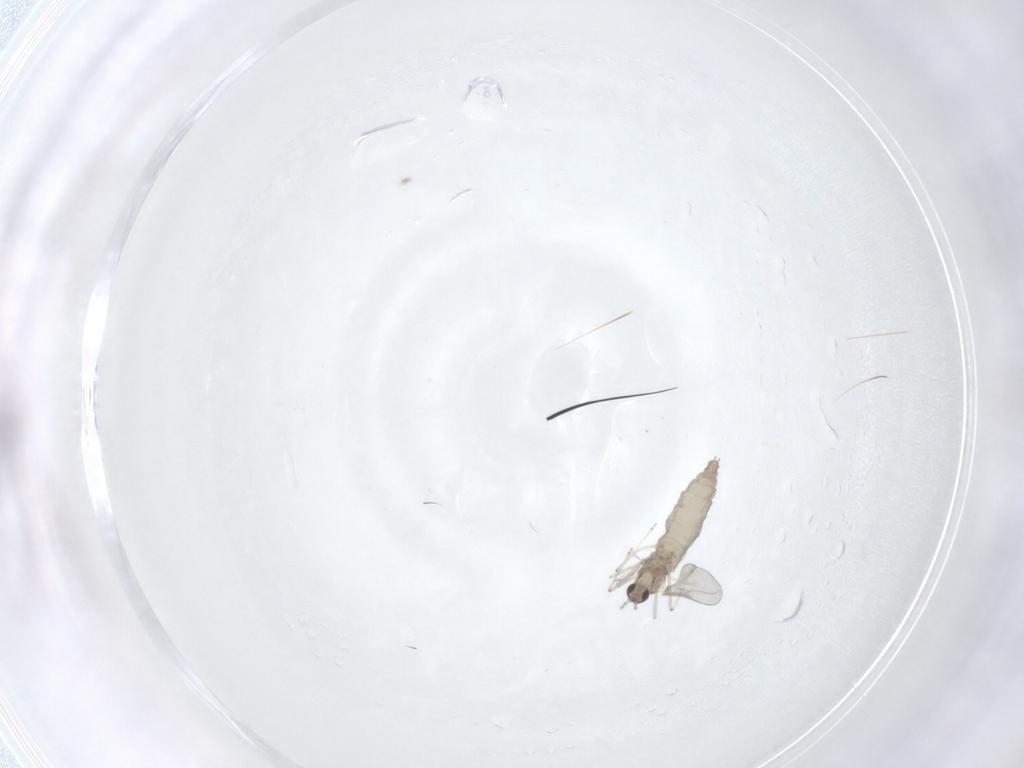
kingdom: Animalia
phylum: Arthropoda
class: Insecta
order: Diptera
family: Cecidomyiidae
